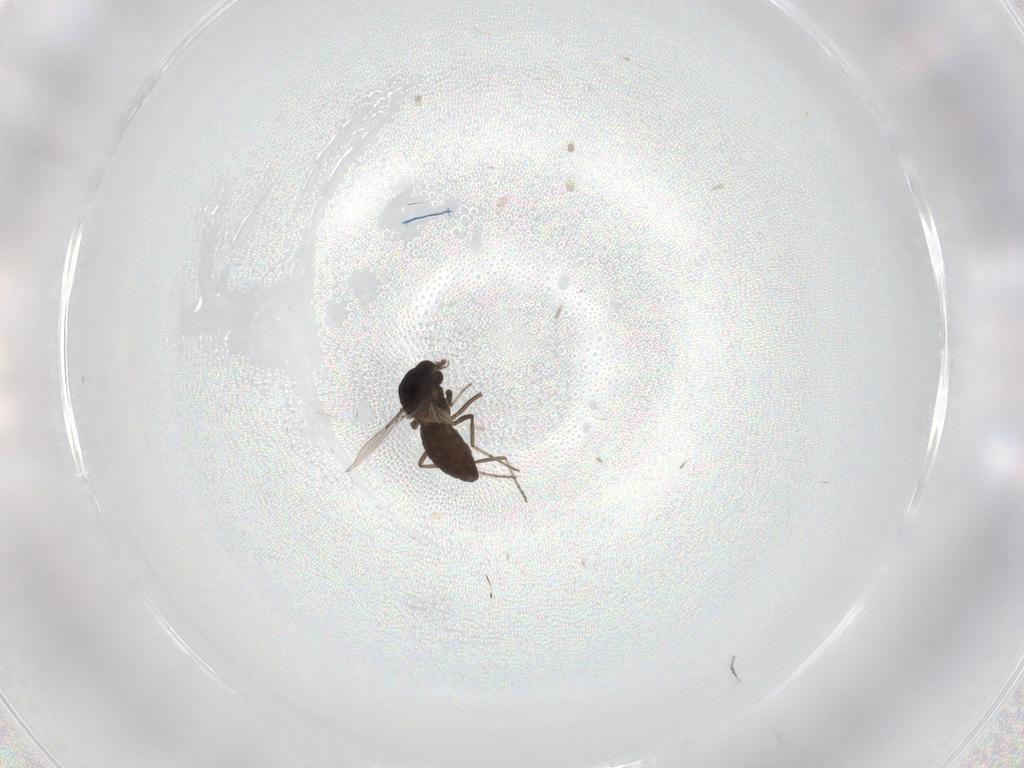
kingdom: Animalia
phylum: Arthropoda
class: Insecta
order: Diptera
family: Ceratopogonidae
